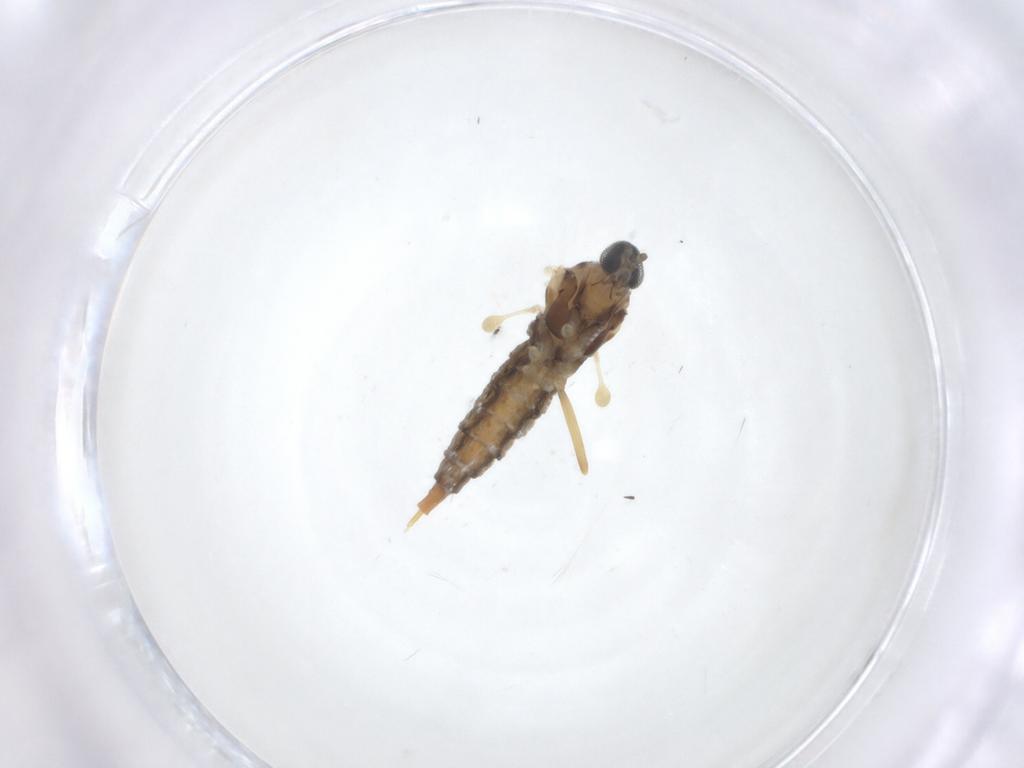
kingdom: Animalia
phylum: Arthropoda
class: Insecta
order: Diptera
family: Cecidomyiidae
